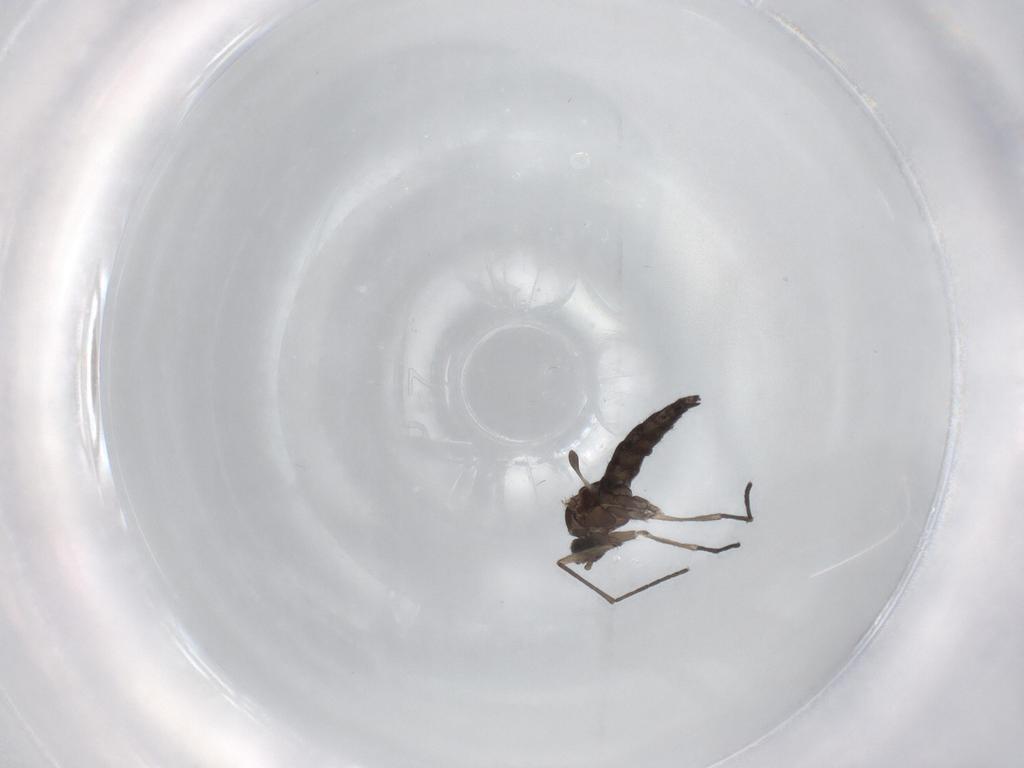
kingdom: Animalia
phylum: Arthropoda
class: Insecta
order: Diptera
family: Sciaridae
